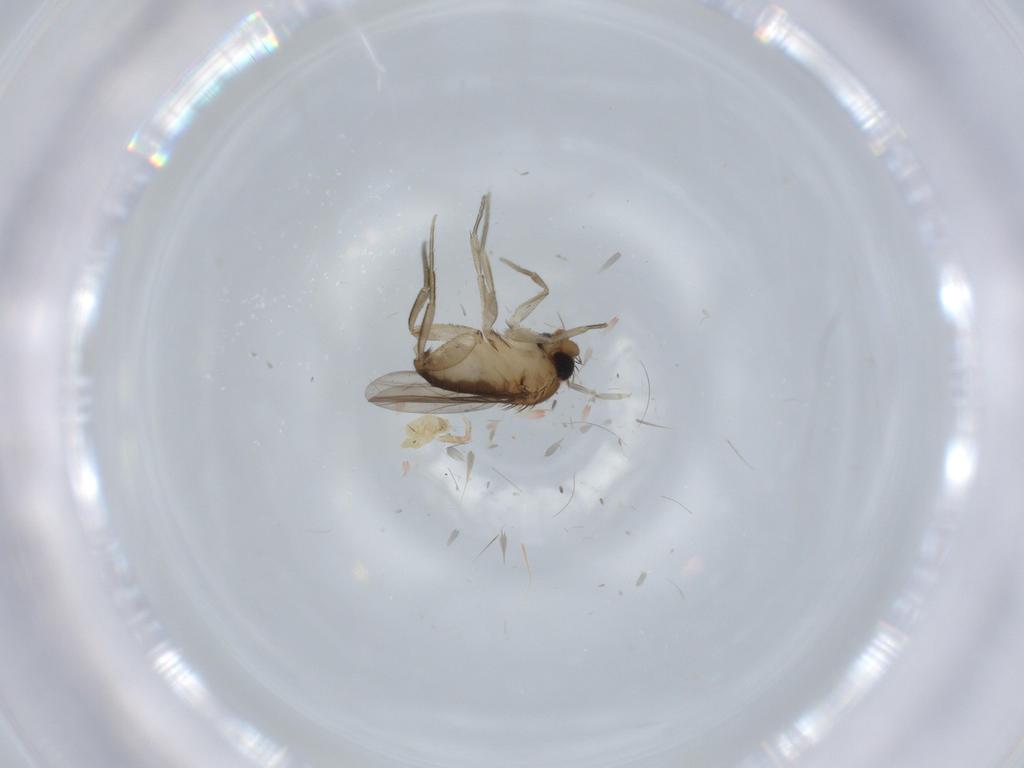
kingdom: Animalia
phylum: Arthropoda
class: Insecta
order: Diptera
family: Phoridae
